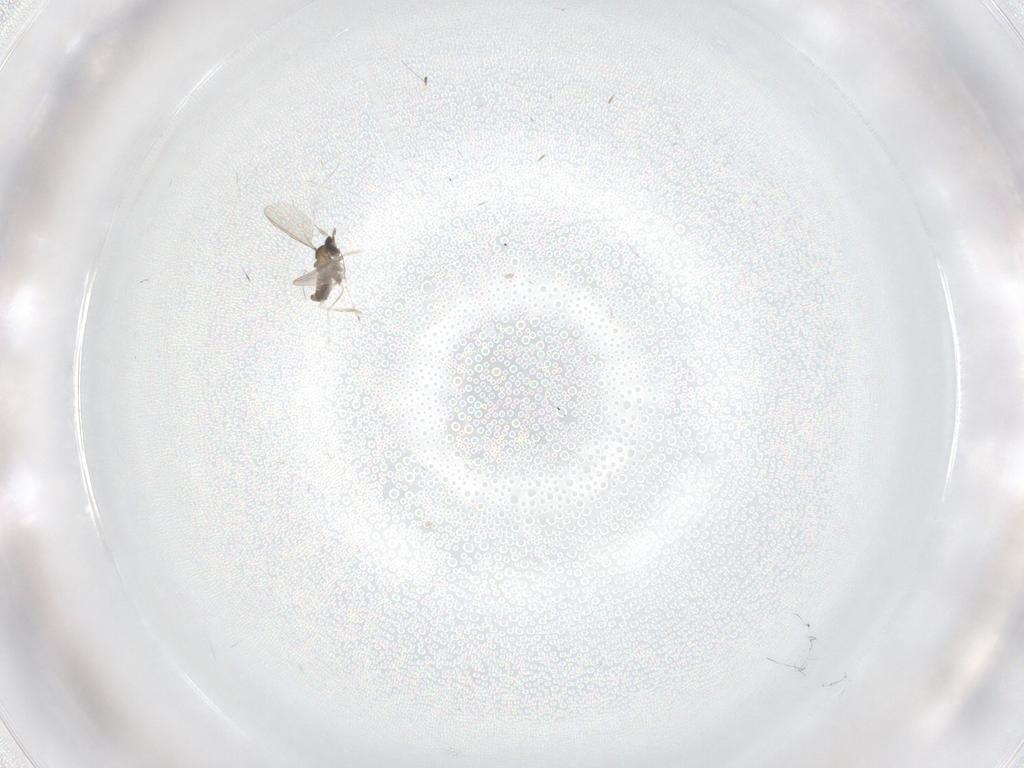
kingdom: Animalia
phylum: Arthropoda
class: Insecta
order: Diptera
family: Cecidomyiidae
